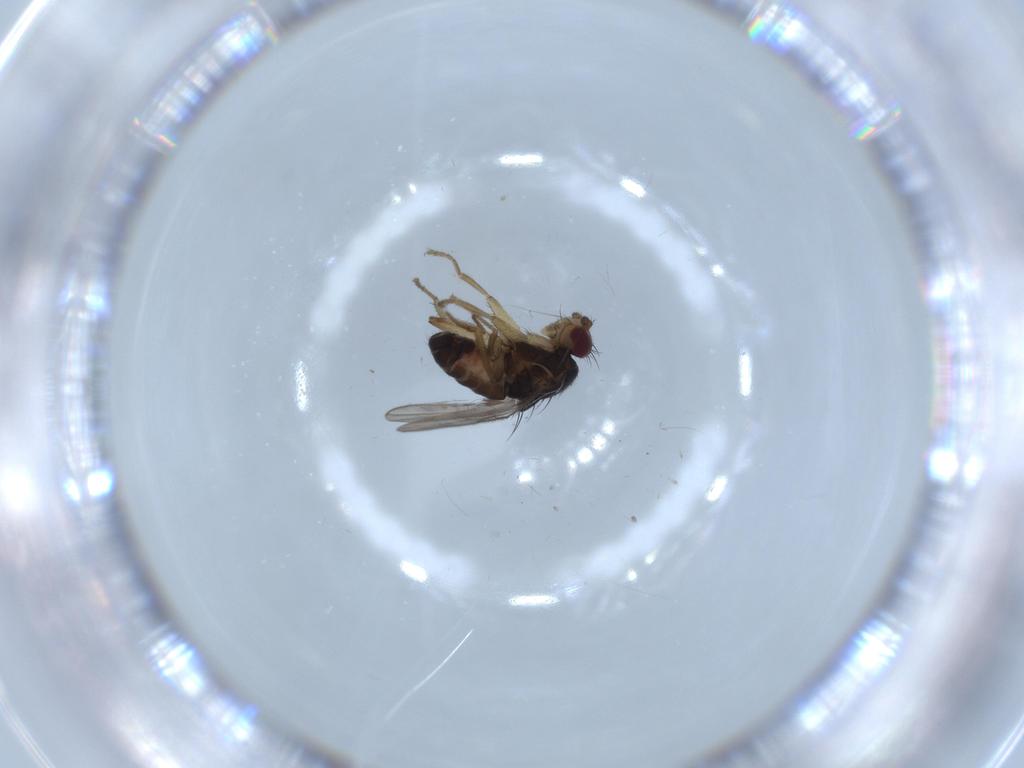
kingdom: Animalia
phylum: Arthropoda
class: Insecta
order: Diptera
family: Sphaeroceridae
